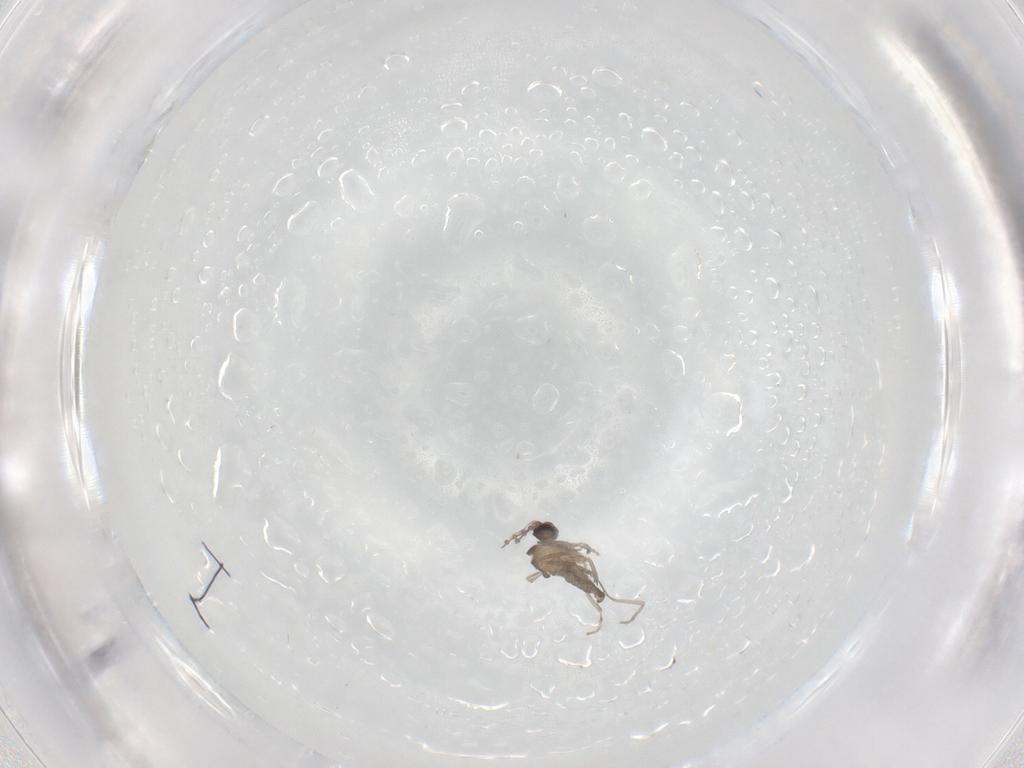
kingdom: Animalia
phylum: Arthropoda
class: Insecta
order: Diptera
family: Cecidomyiidae
